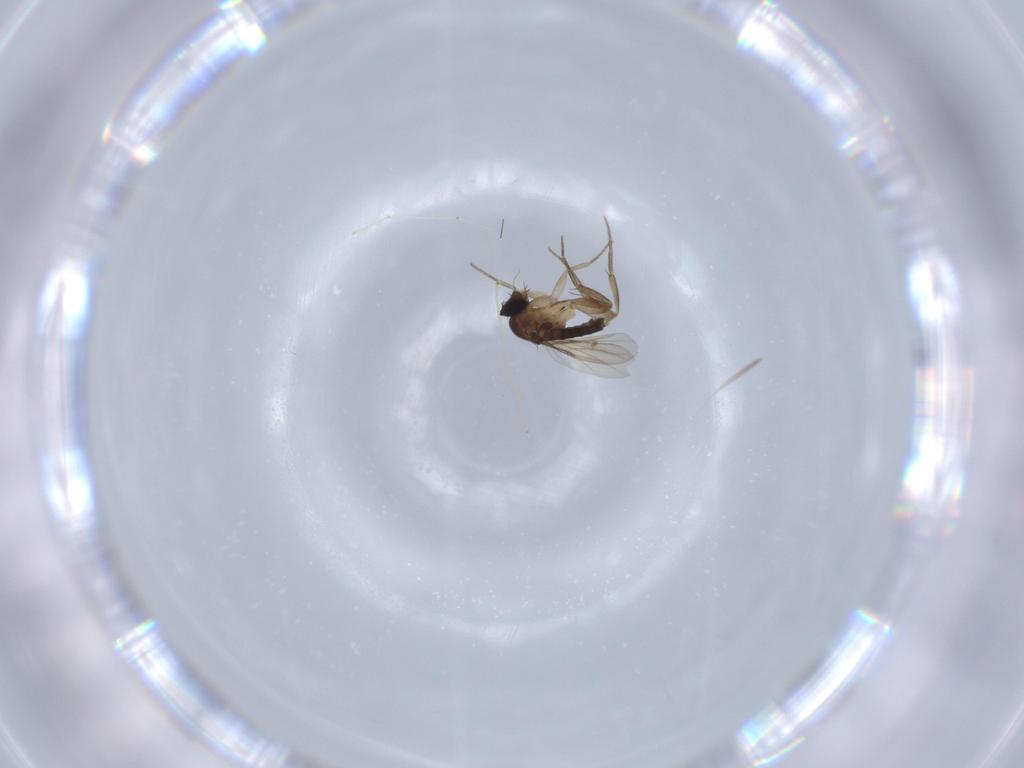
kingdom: Animalia
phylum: Arthropoda
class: Insecta
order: Diptera
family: Phoridae
